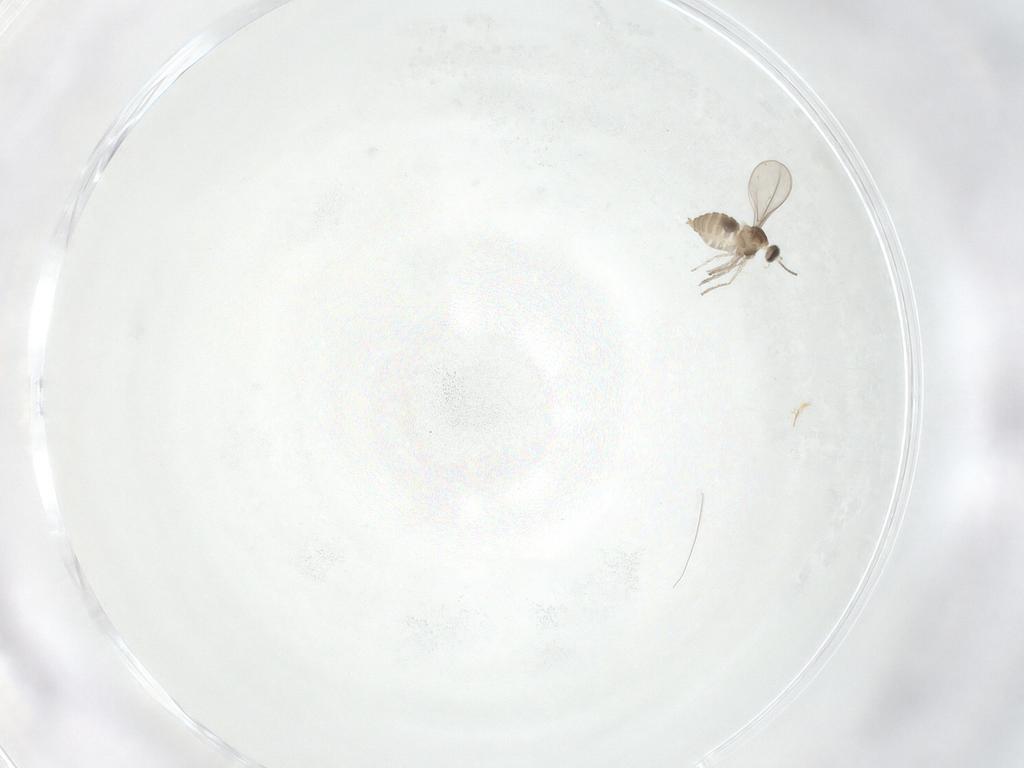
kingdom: Animalia
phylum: Arthropoda
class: Insecta
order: Diptera
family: Cecidomyiidae
